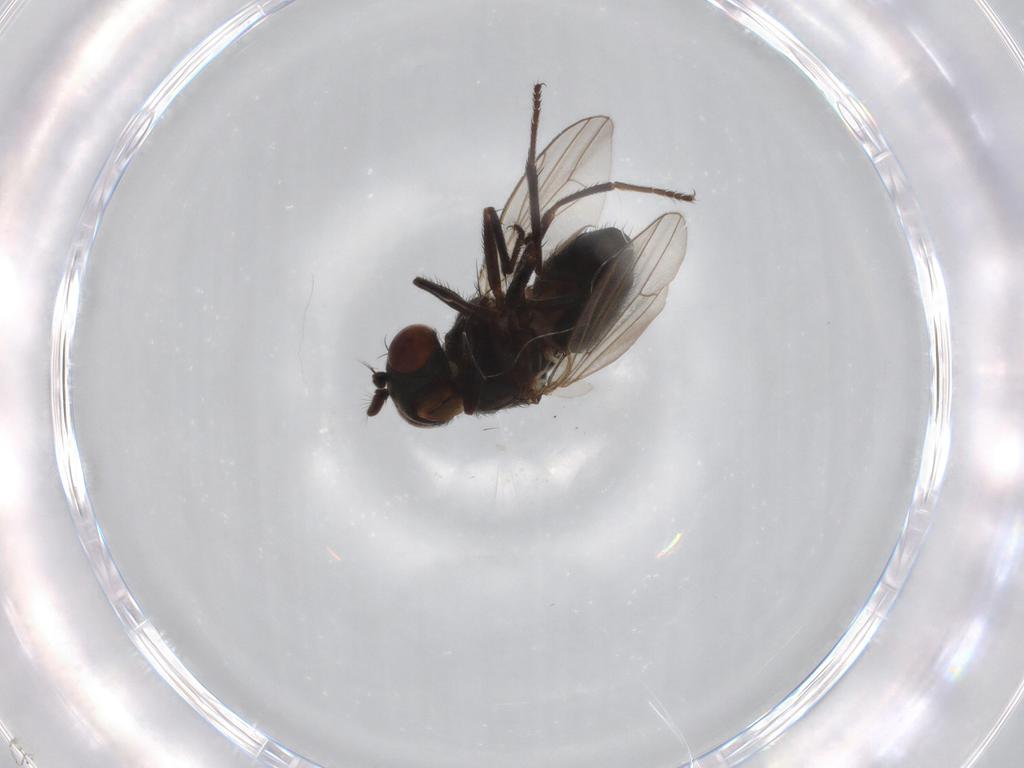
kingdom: Animalia
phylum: Arthropoda
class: Insecta
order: Diptera
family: Ephydridae
